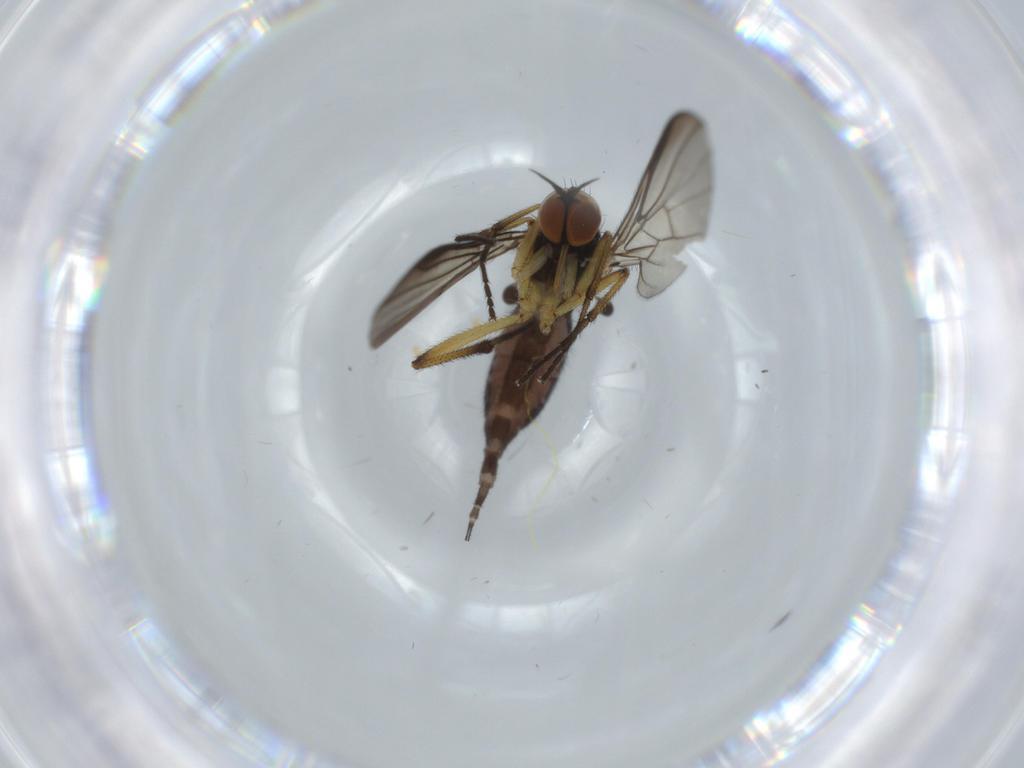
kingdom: Animalia
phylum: Arthropoda
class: Insecta
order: Diptera
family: Empididae
